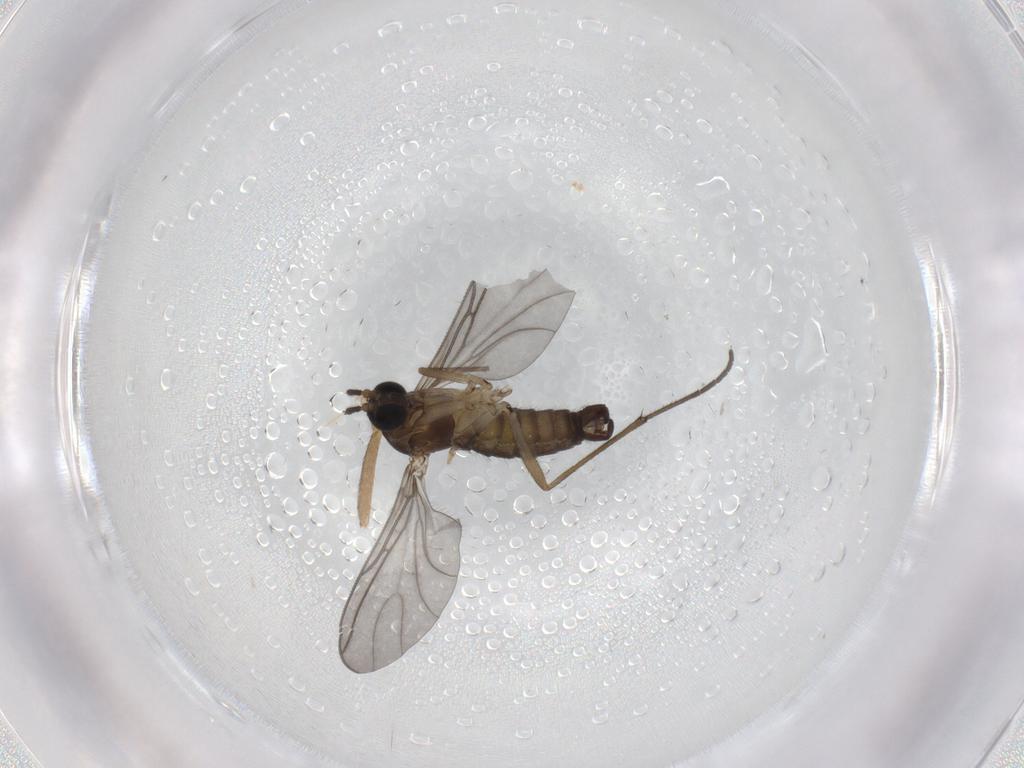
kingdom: Animalia
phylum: Arthropoda
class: Insecta
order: Diptera
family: Sciaridae
